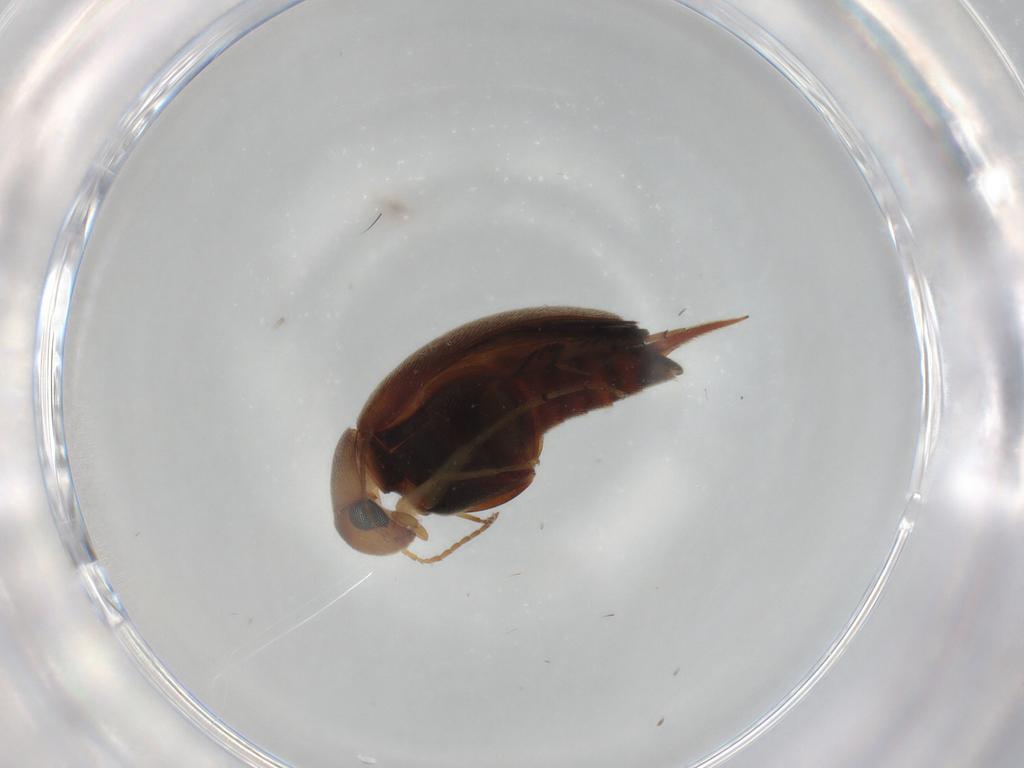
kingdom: Animalia
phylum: Arthropoda
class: Insecta
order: Coleoptera
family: Mordellidae
